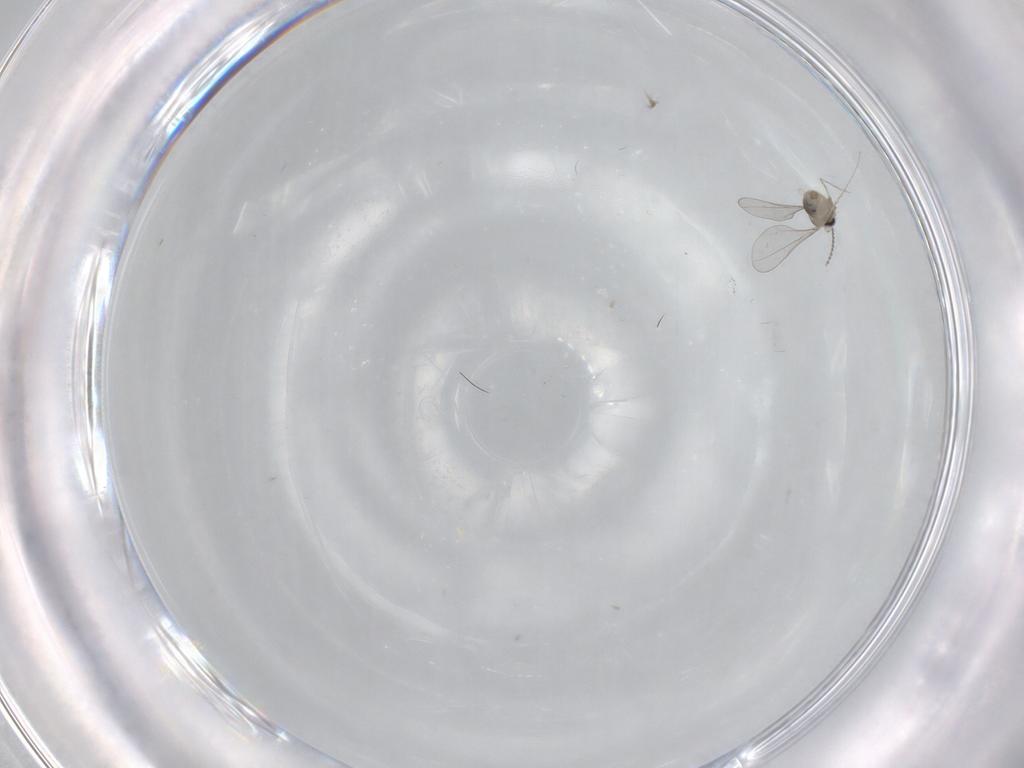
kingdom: Animalia
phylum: Arthropoda
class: Insecta
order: Diptera
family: Cecidomyiidae
